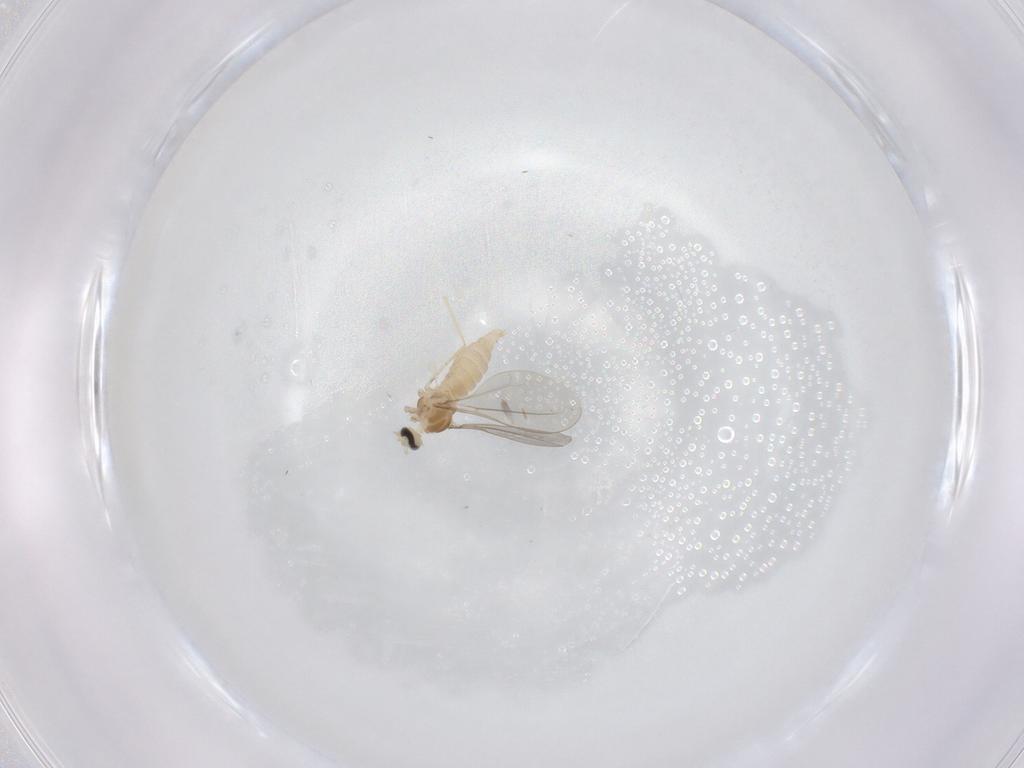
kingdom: Animalia
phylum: Arthropoda
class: Insecta
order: Diptera
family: Cecidomyiidae
